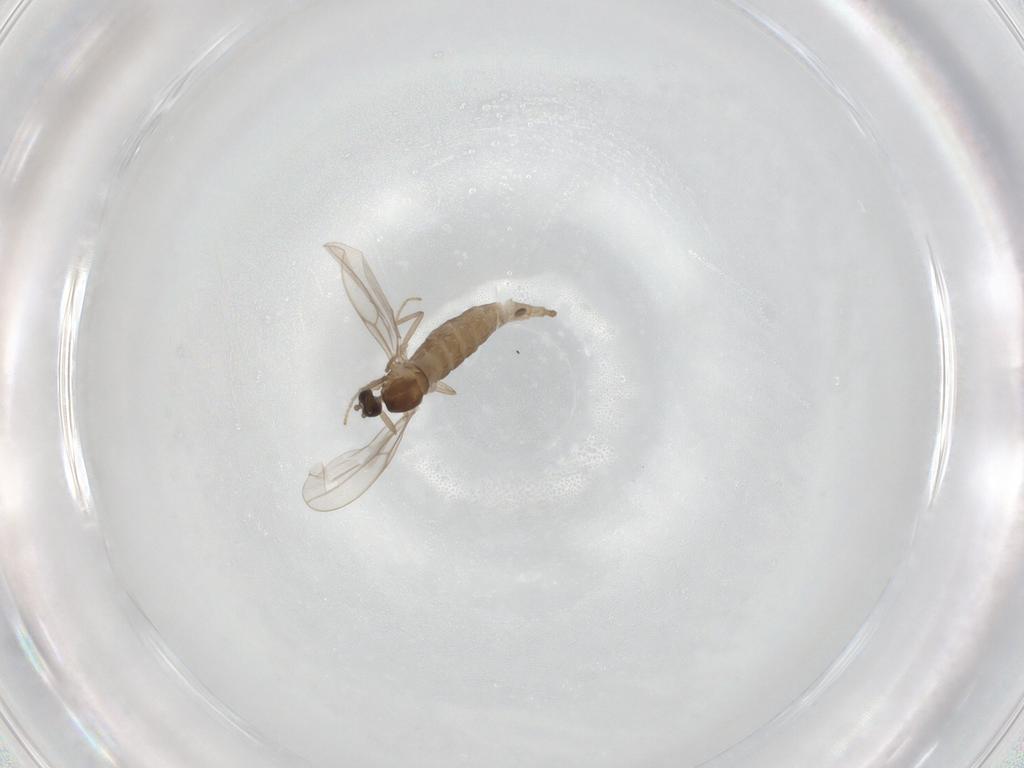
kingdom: Animalia
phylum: Arthropoda
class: Insecta
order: Diptera
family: Cecidomyiidae
